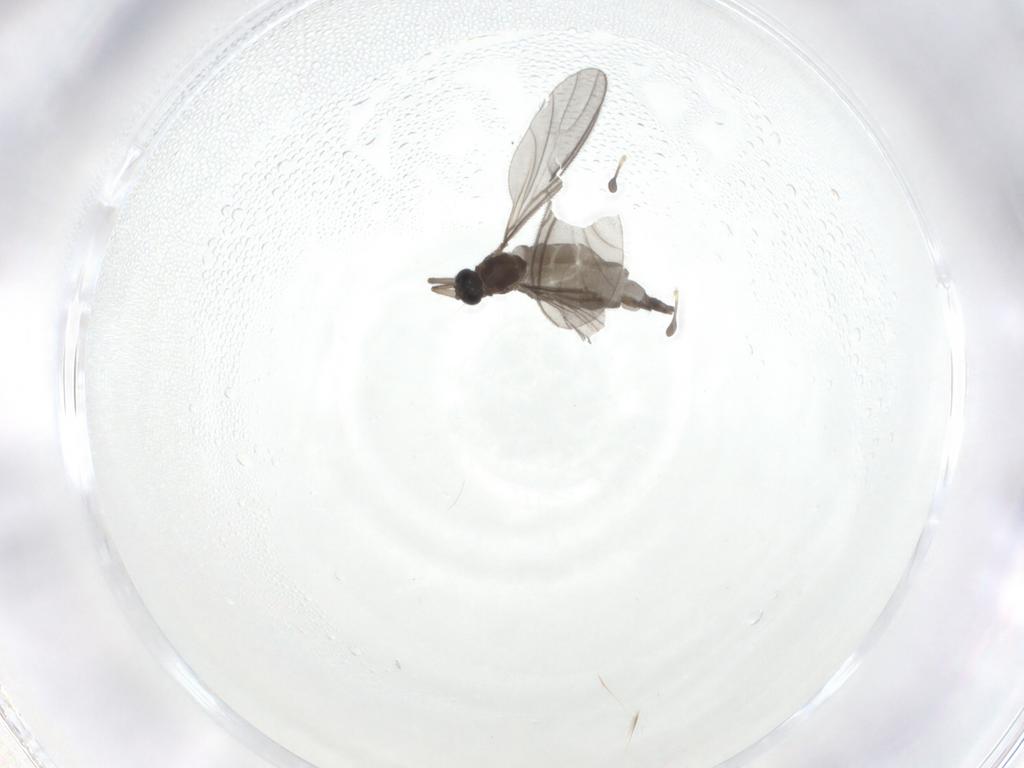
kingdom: Animalia
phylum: Arthropoda
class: Insecta
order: Diptera
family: Sciaridae
